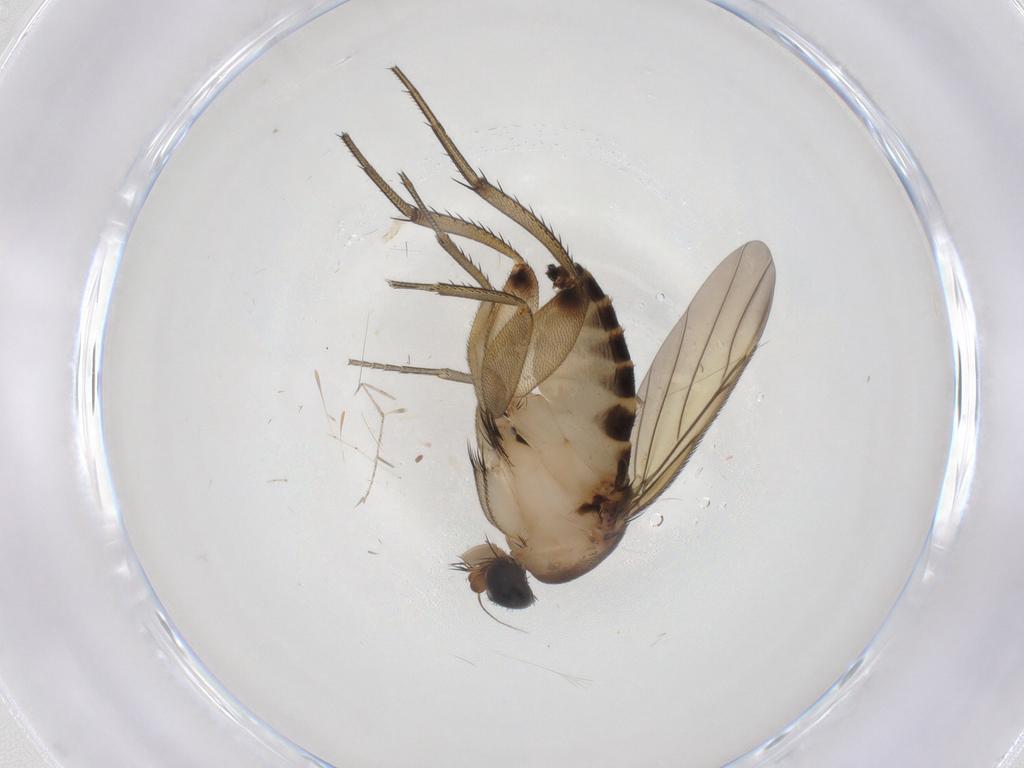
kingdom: Animalia
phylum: Arthropoda
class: Insecta
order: Diptera
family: Phoridae
